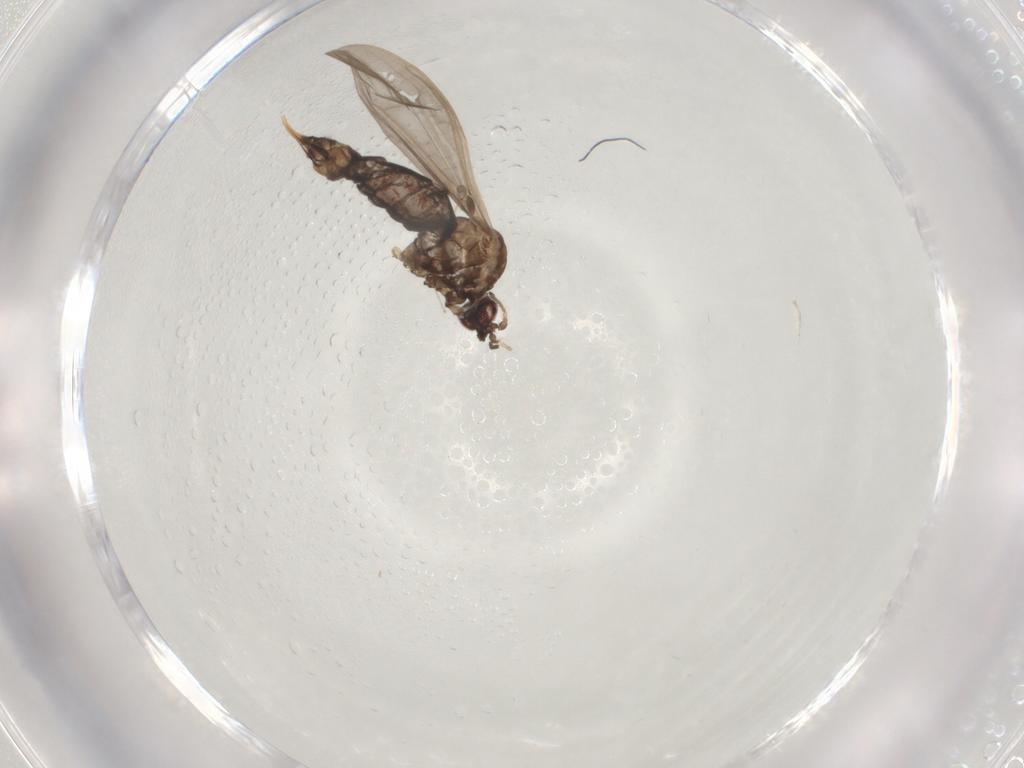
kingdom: Animalia
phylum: Arthropoda
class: Insecta
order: Diptera
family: Limoniidae
